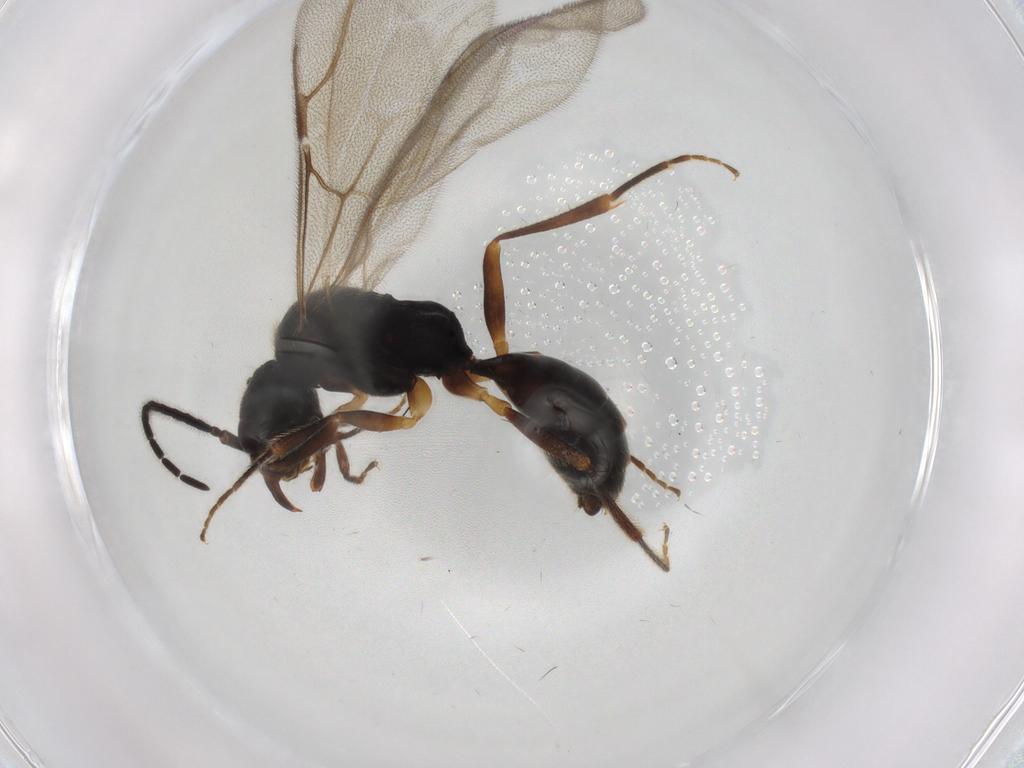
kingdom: Animalia
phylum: Arthropoda
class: Insecta
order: Hymenoptera
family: Bethylidae
